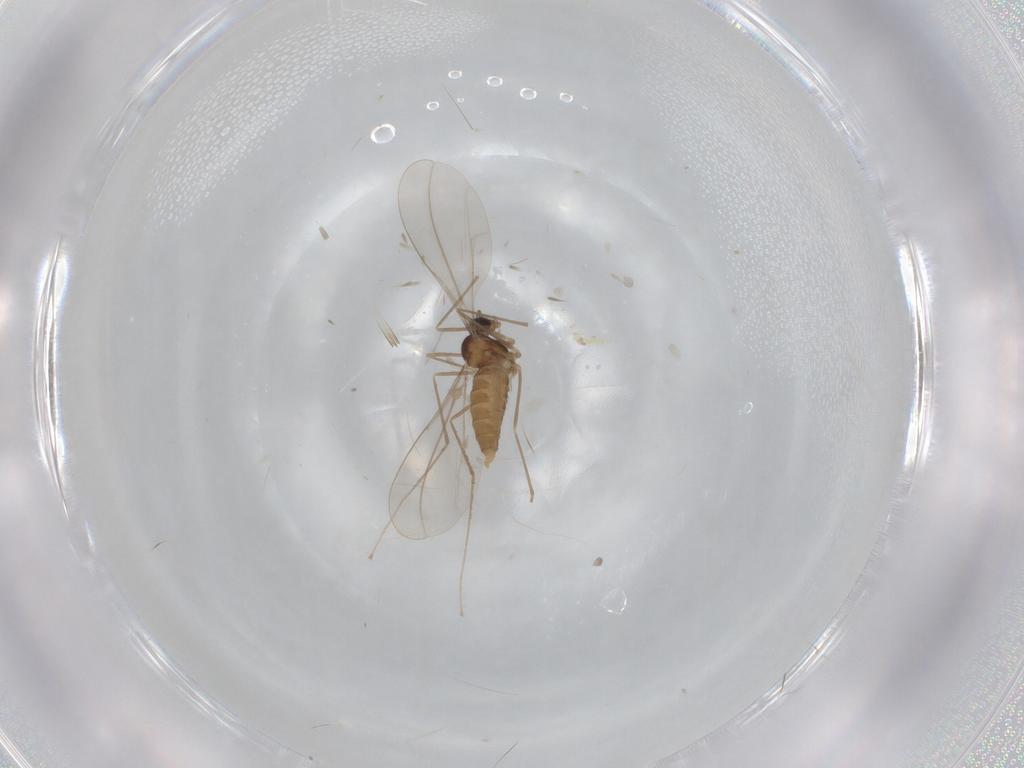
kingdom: Animalia
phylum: Arthropoda
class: Insecta
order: Diptera
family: Cecidomyiidae
